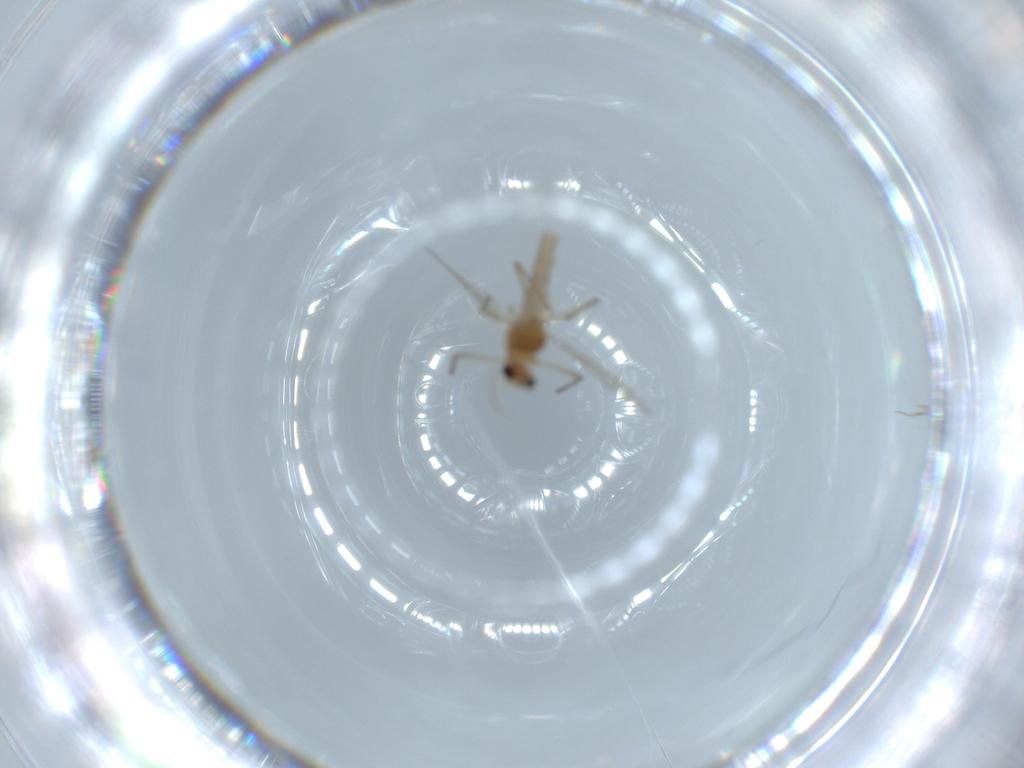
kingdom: Animalia
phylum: Arthropoda
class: Insecta
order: Diptera
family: Chironomidae
